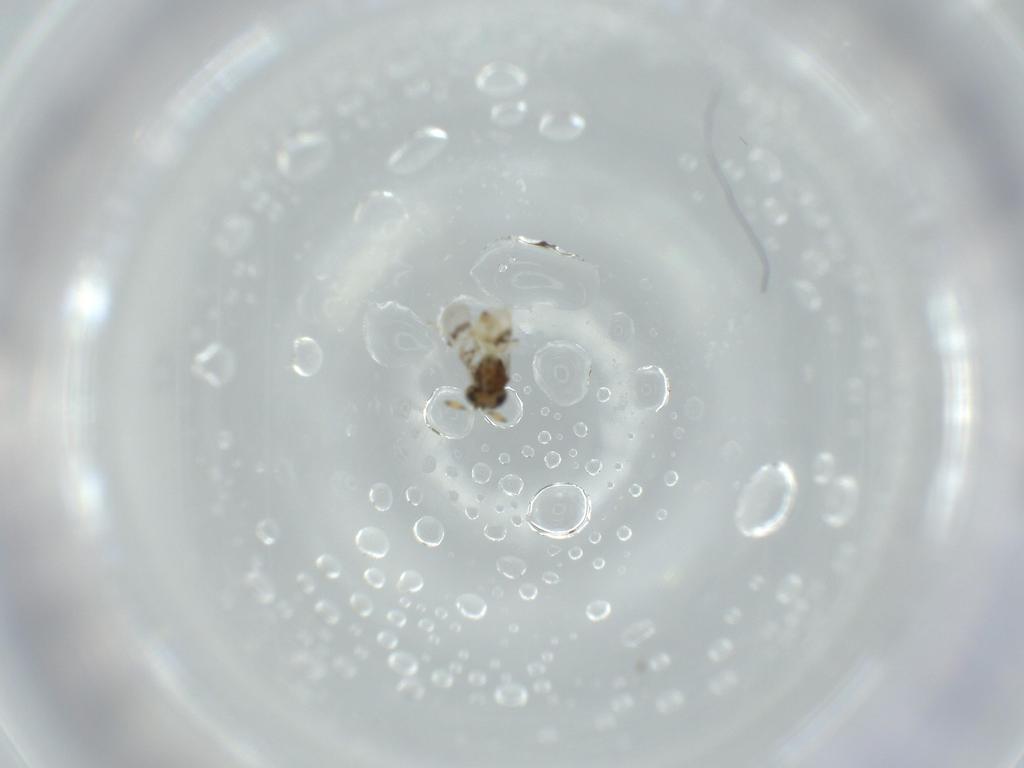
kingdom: Animalia
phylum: Arthropoda
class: Insecta
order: Hymenoptera
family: Scelionidae
